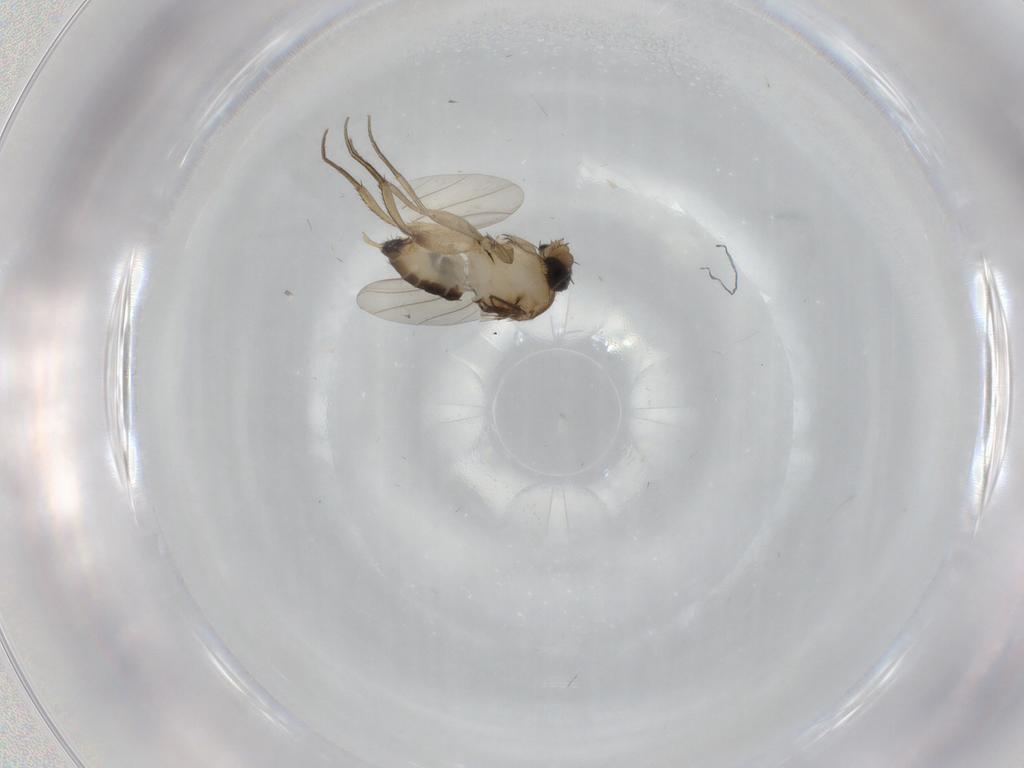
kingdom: Animalia
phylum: Arthropoda
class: Insecta
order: Diptera
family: Phoridae
